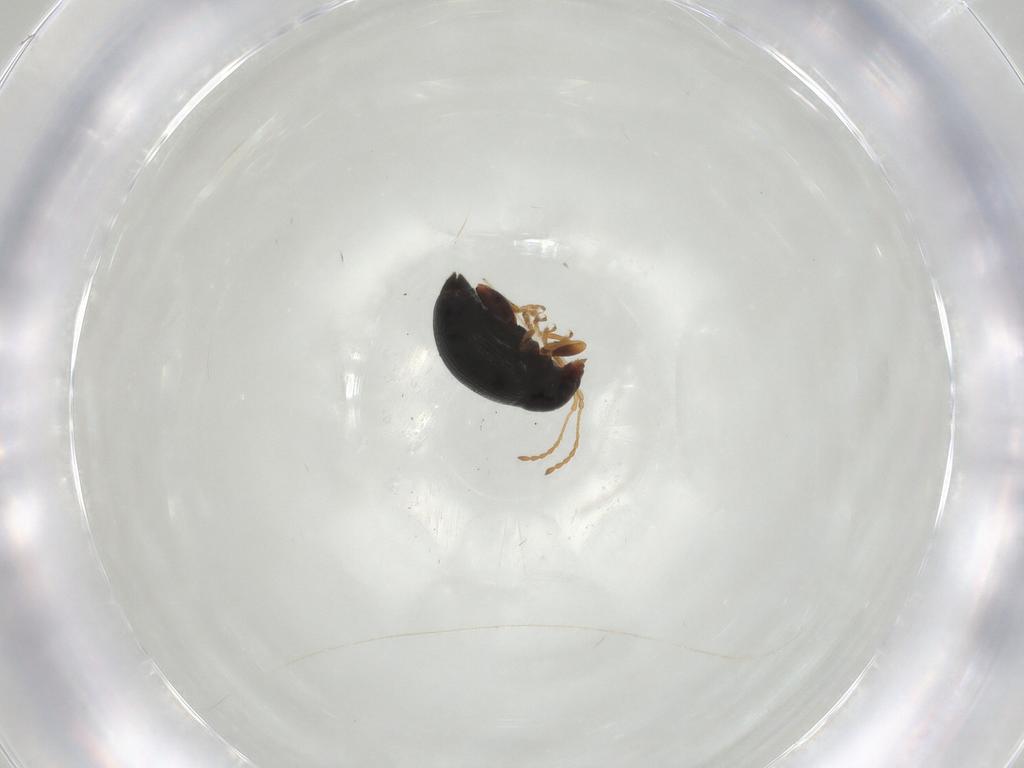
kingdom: Animalia
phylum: Arthropoda
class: Insecta
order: Coleoptera
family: Chrysomelidae
